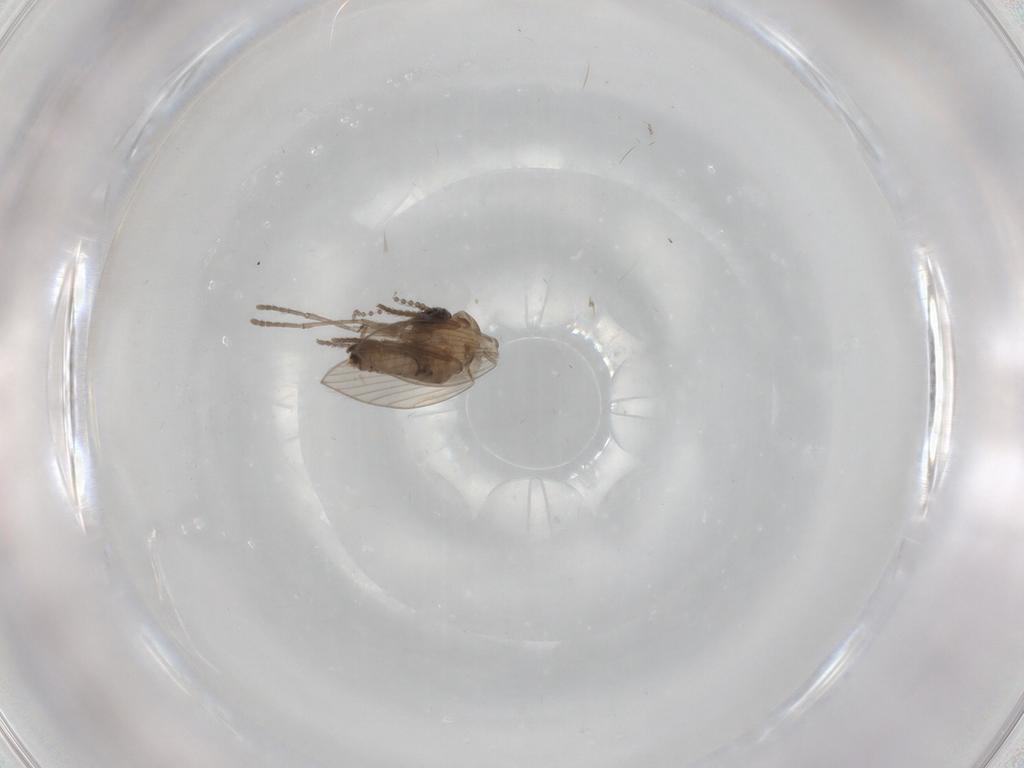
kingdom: Animalia
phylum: Arthropoda
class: Insecta
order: Diptera
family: Psychodidae
